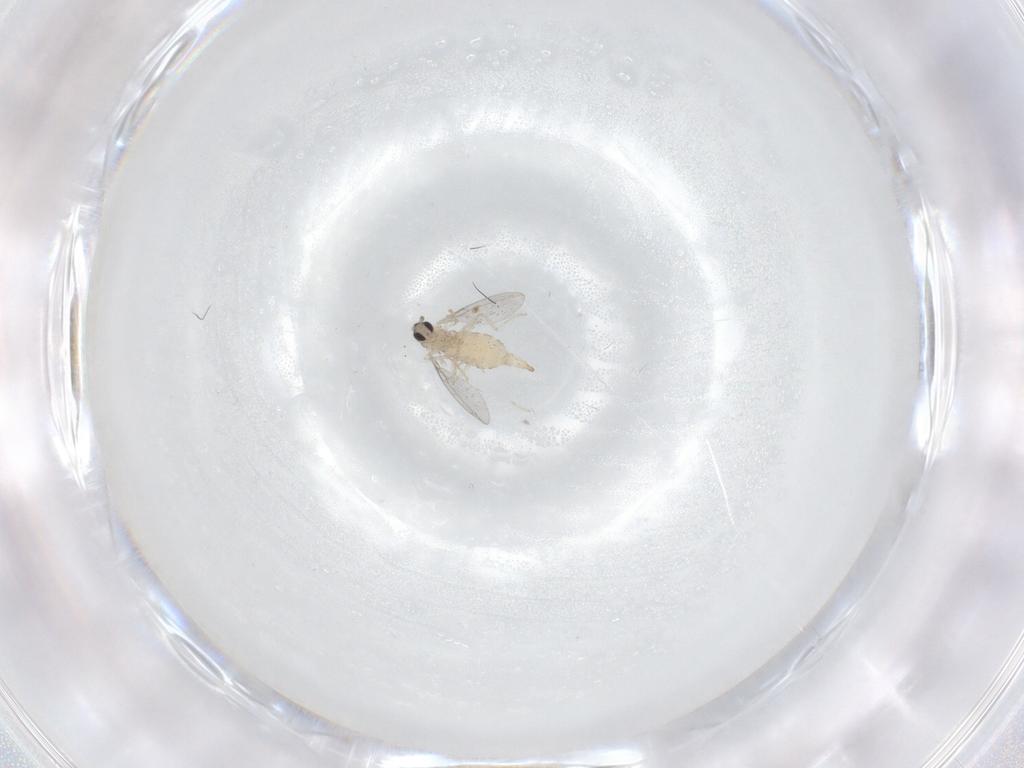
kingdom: Animalia
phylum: Arthropoda
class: Insecta
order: Diptera
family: Cecidomyiidae
